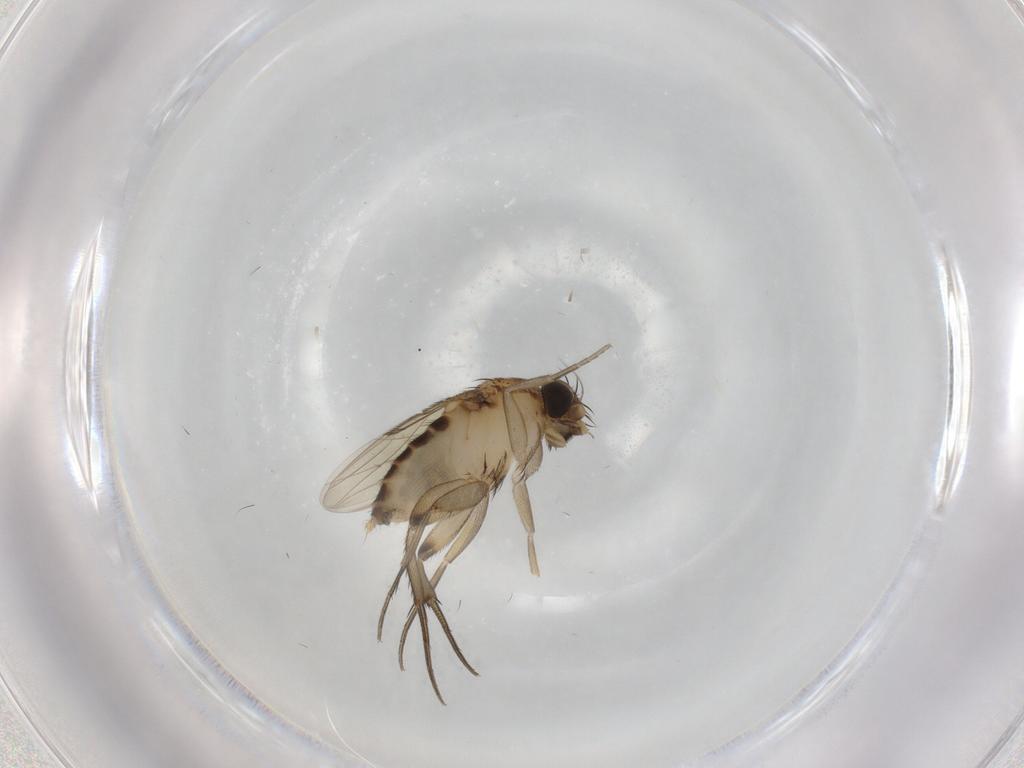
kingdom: Animalia
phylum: Arthropoda
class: Insecta
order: Diptera
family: Phoridae
